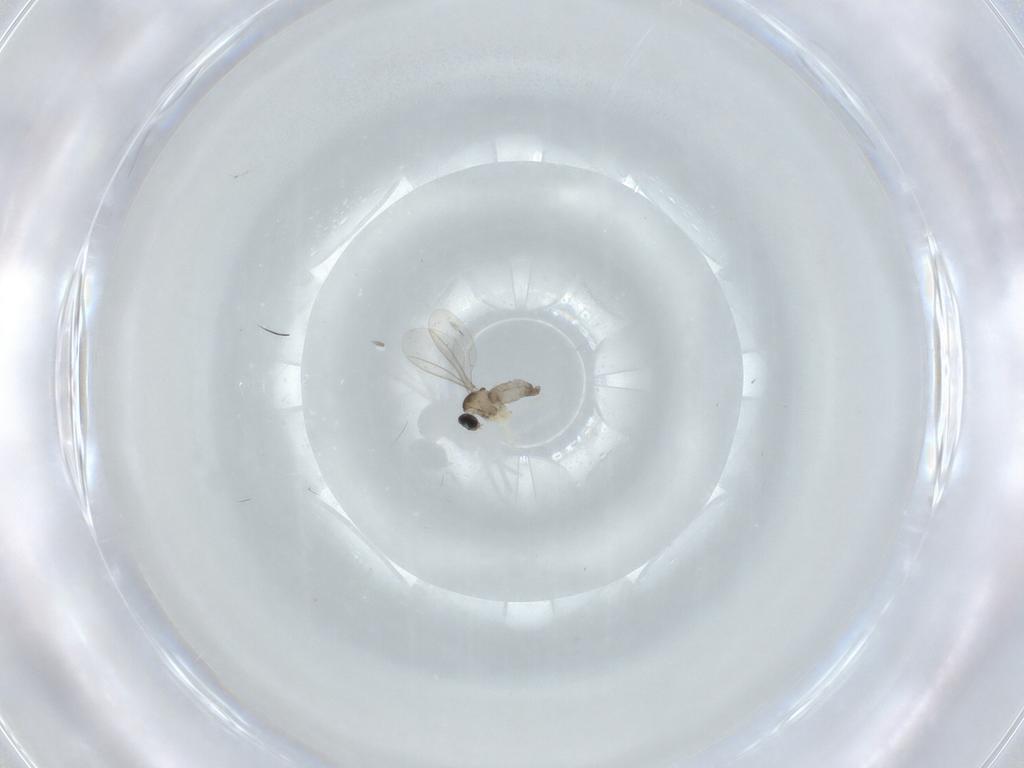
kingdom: Animalia
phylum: Arthropoda
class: Insecta
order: Diptera
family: Cecidomyiidae
